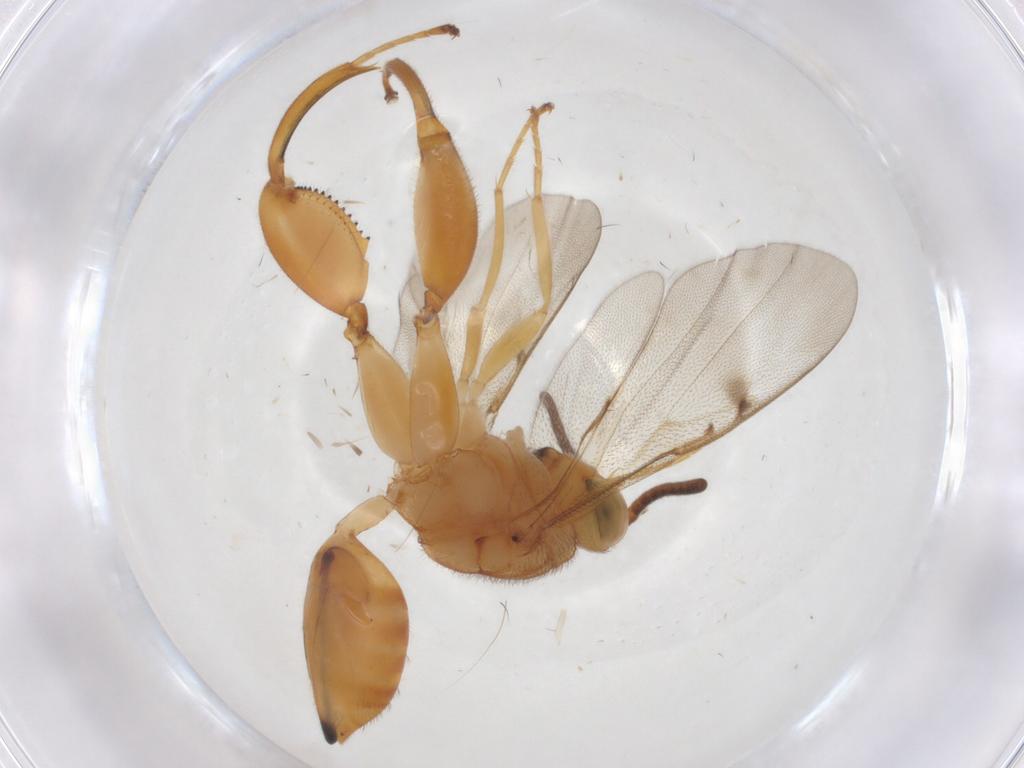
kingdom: Animalia
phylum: Arthropoda
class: Insecta
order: Hymenoptera
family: Chalcididae
